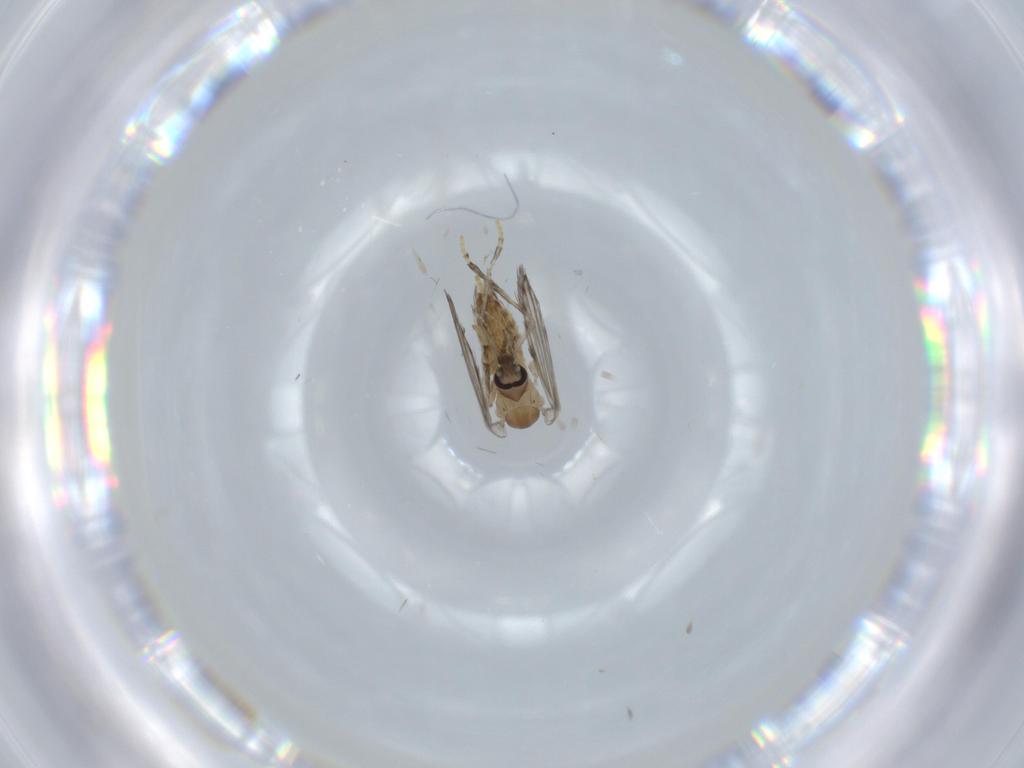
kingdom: Animalia
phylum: Arthropoda
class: Insecta
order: Diptera
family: Psychodidae
